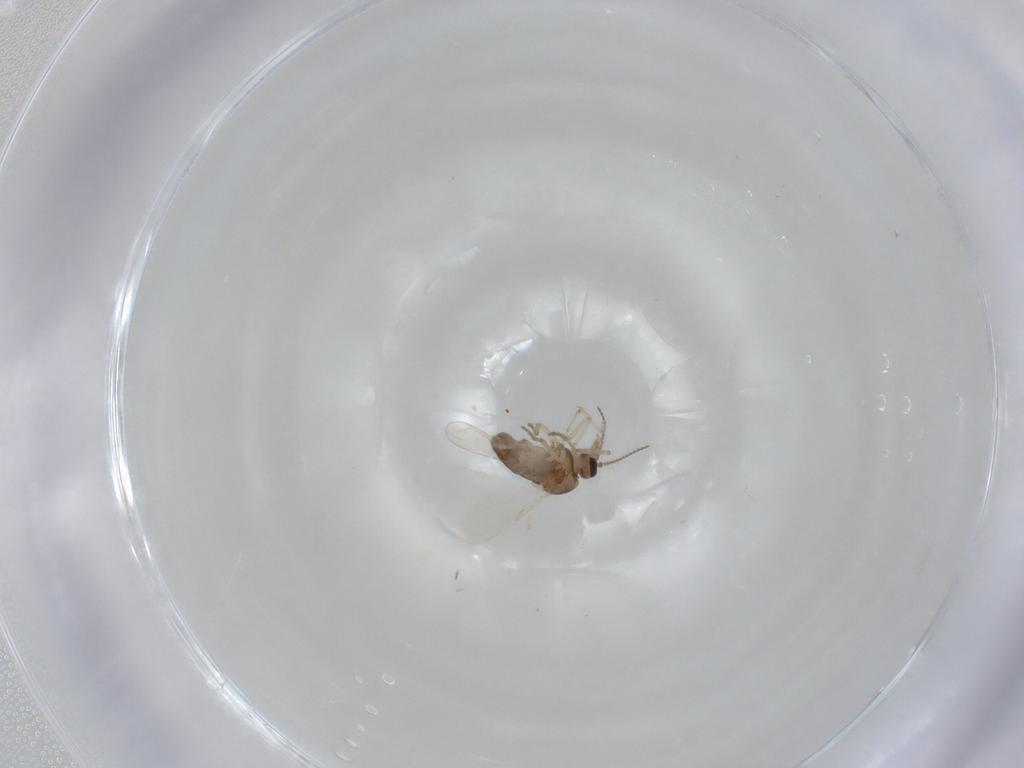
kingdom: Animalia
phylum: Arthropoda
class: Insecta
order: Diptera
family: Ceratopogonidae
